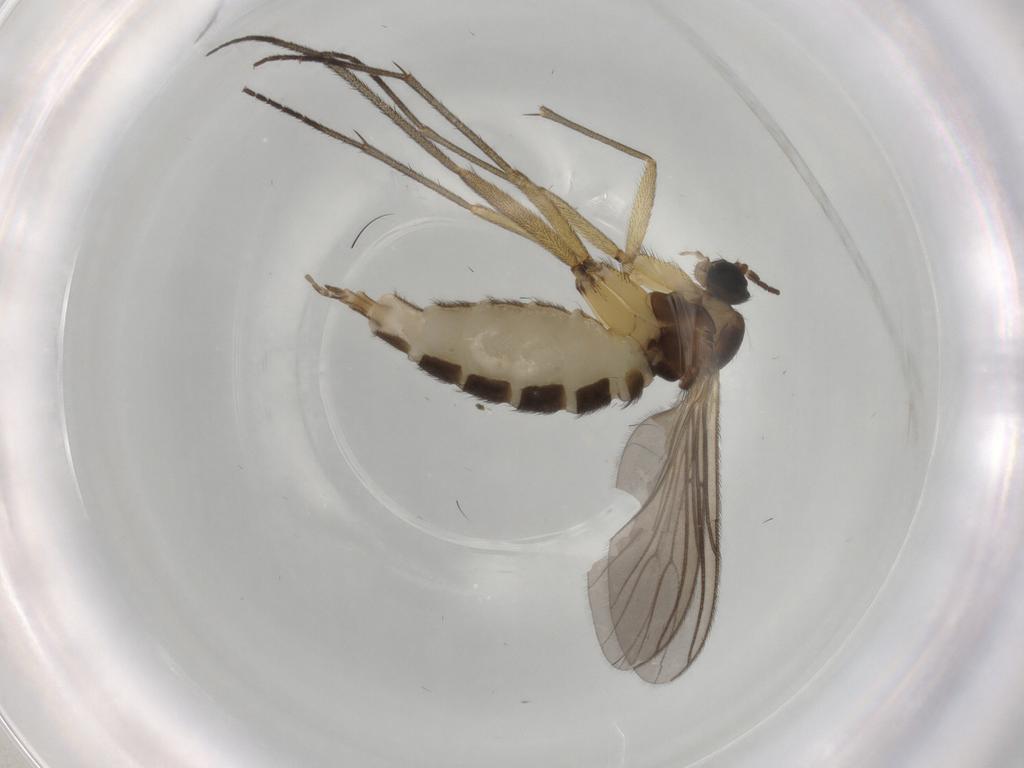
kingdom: Animalia
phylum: Arthropoda
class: Insecta
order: Diptera
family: Sciaridae
